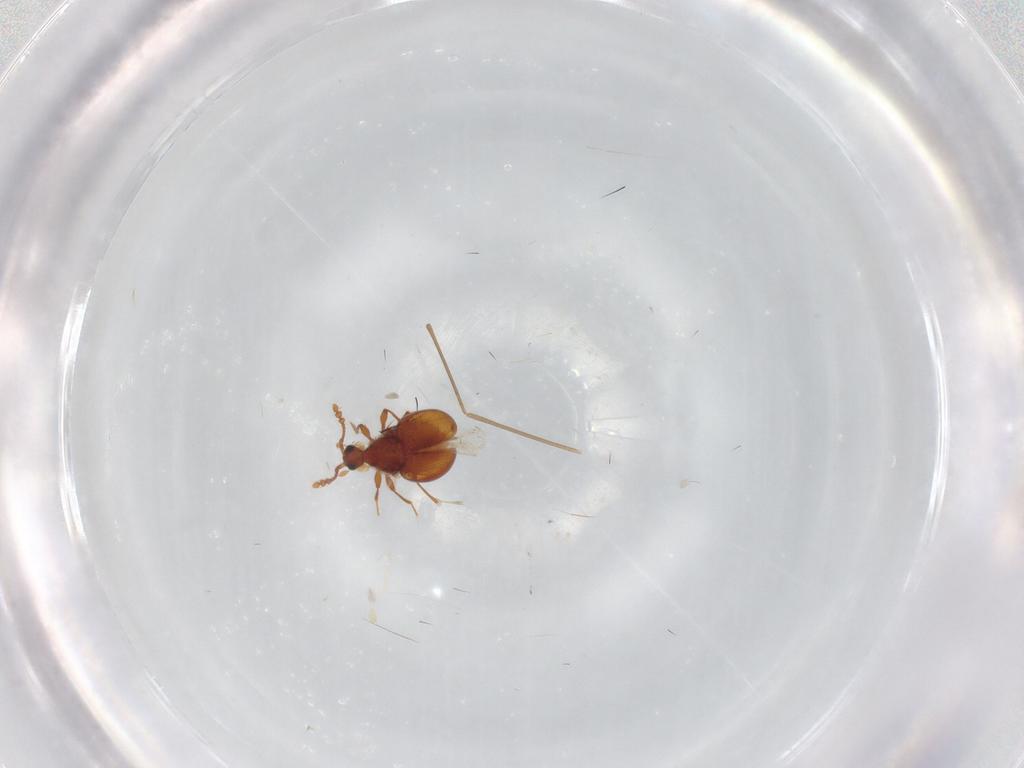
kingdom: Animalia
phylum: Arthropoda
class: Insecta
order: Coleoptera
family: Staphylinidae
